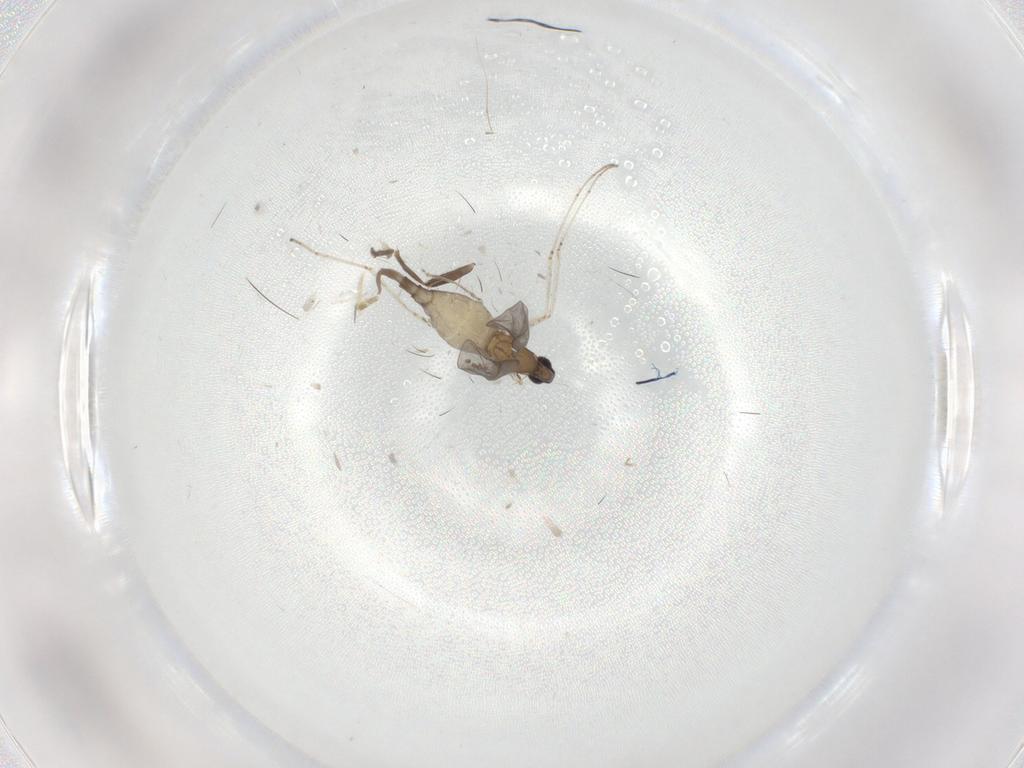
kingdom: Animalia
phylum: Arthropoda
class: Insecta
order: Diptera
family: Cecidomyiidae
